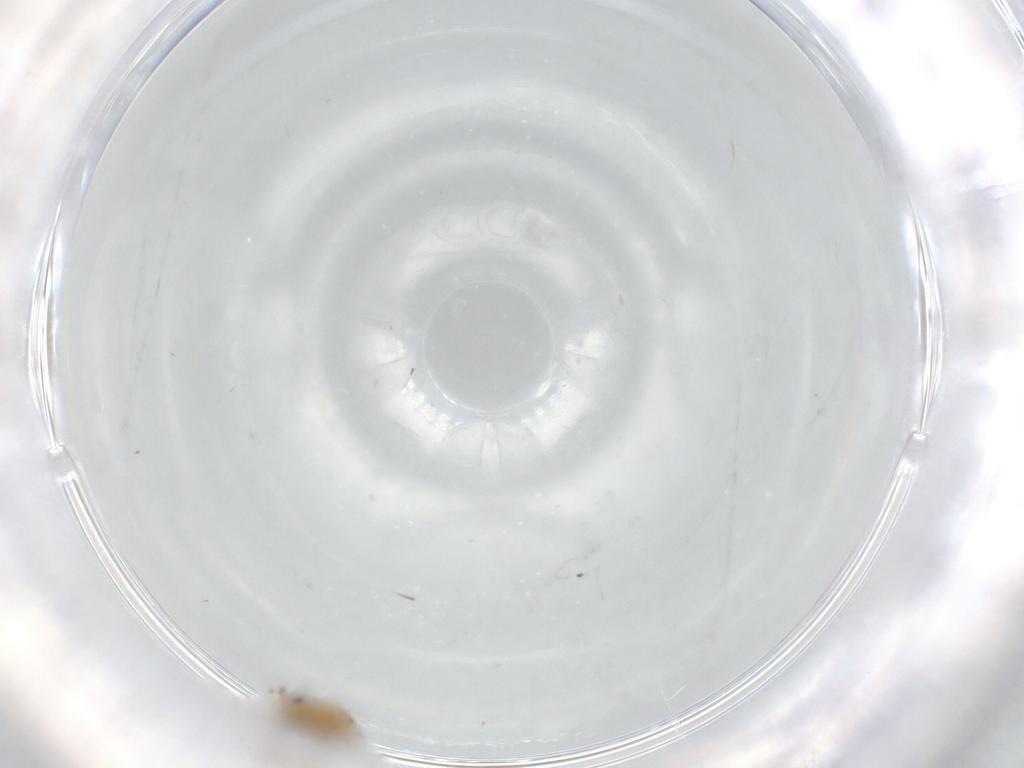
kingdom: Animalia
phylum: Arthropoda
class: Insecta
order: Diptera
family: Chironomidae
